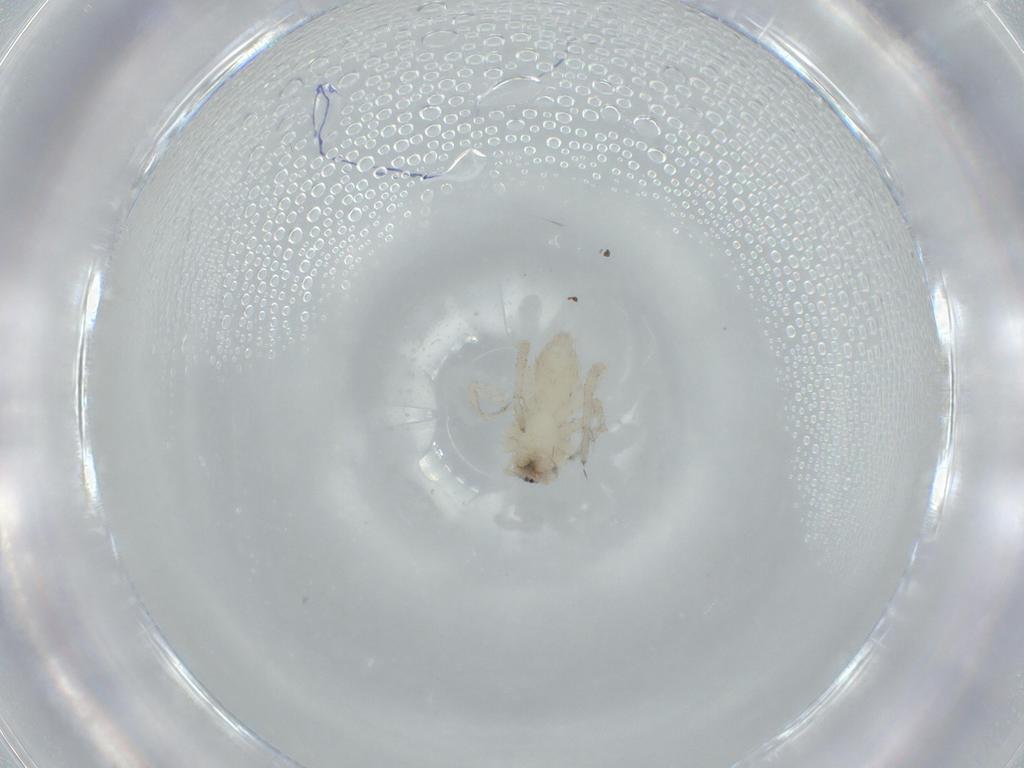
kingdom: Animalia
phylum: Arthropoda
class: Arachnida
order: Araneae
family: Amaurobiidae
